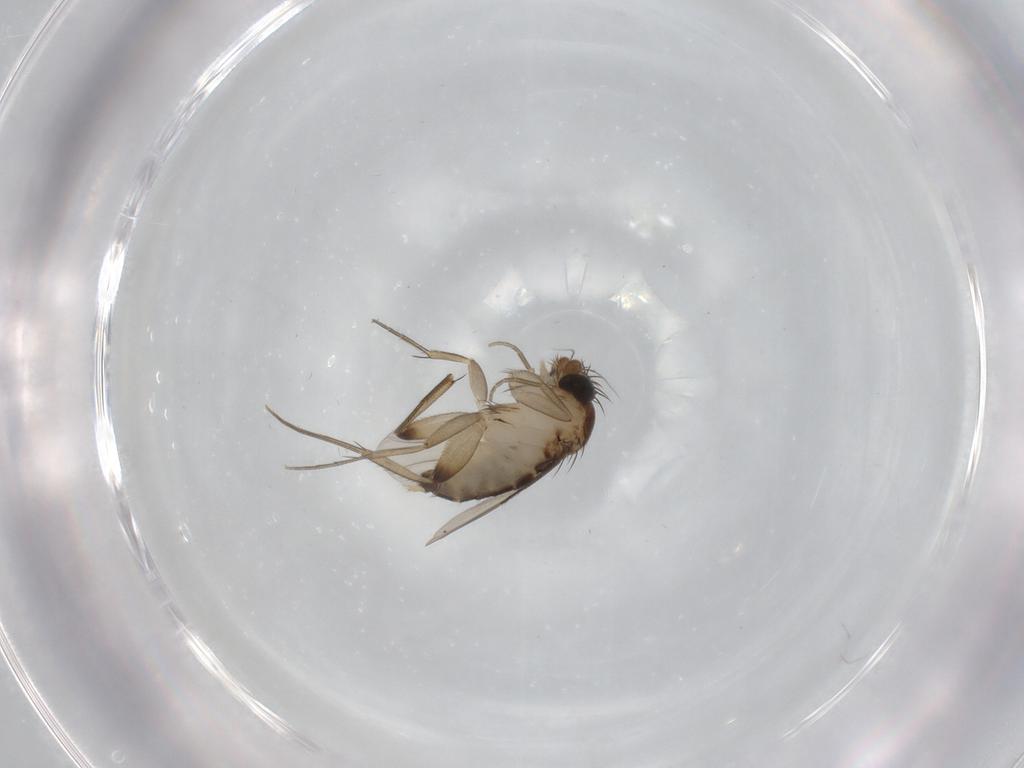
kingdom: Animalia
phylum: Arthropoda
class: Insecta
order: Diptera
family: Phoridae
